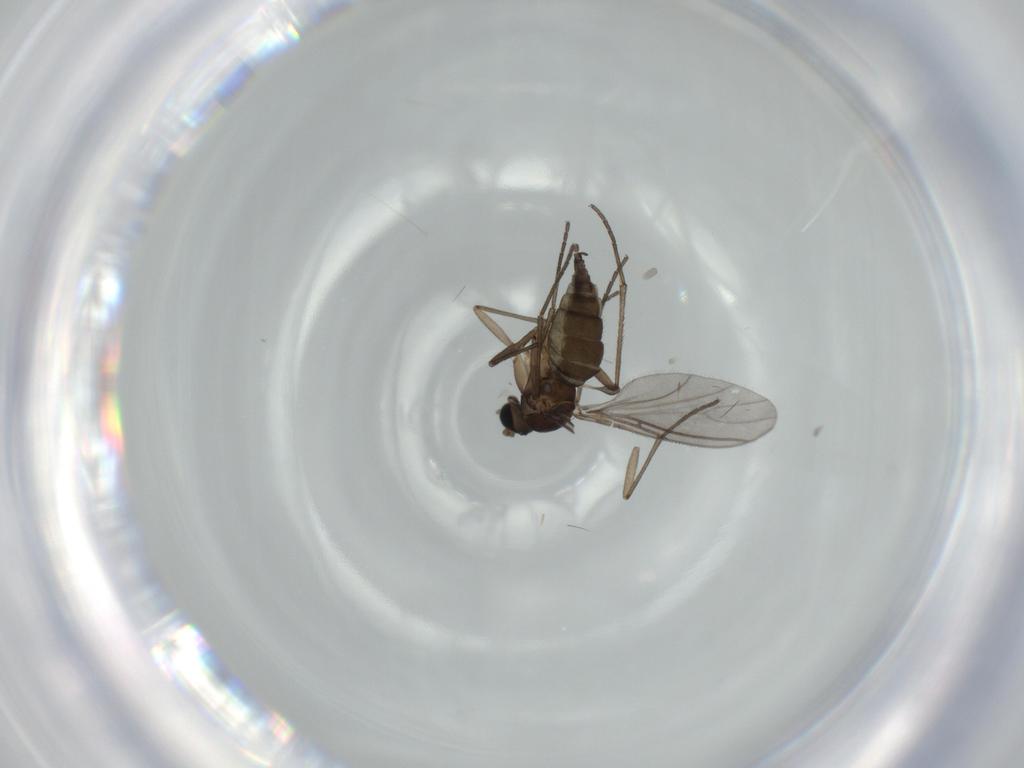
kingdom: Animalia
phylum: Arthropoda
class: Insecta
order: Diptera
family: Sciaridae
